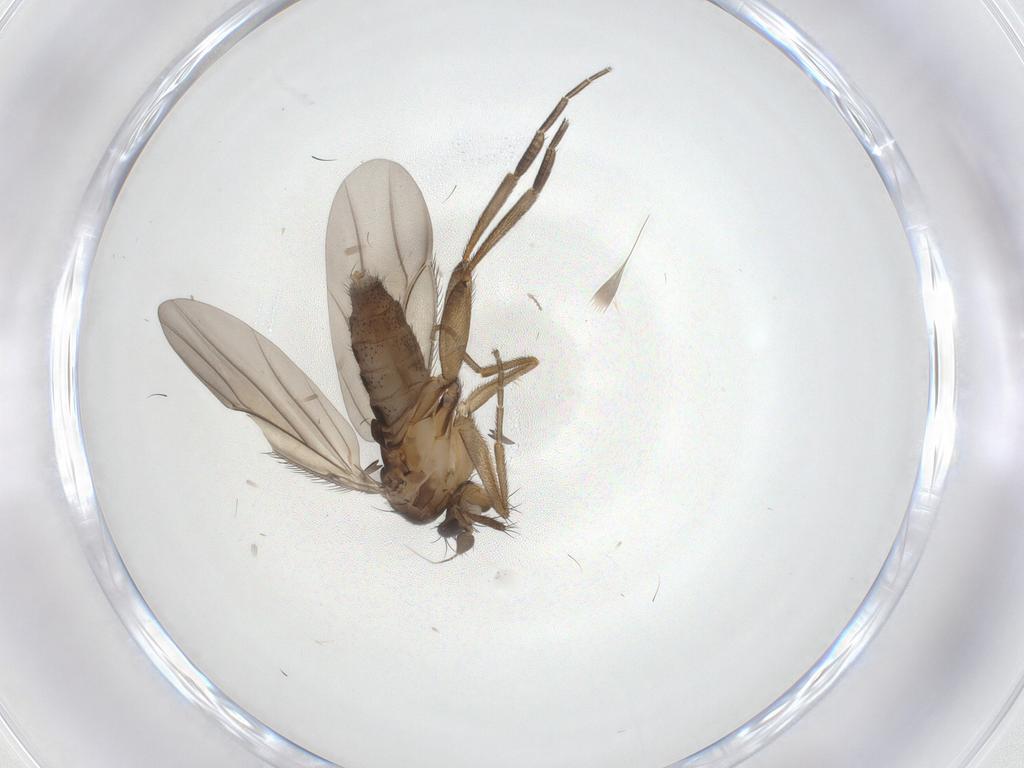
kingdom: Animalia
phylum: Arthropoda
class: Insecta
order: Diptera
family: Phoridae
